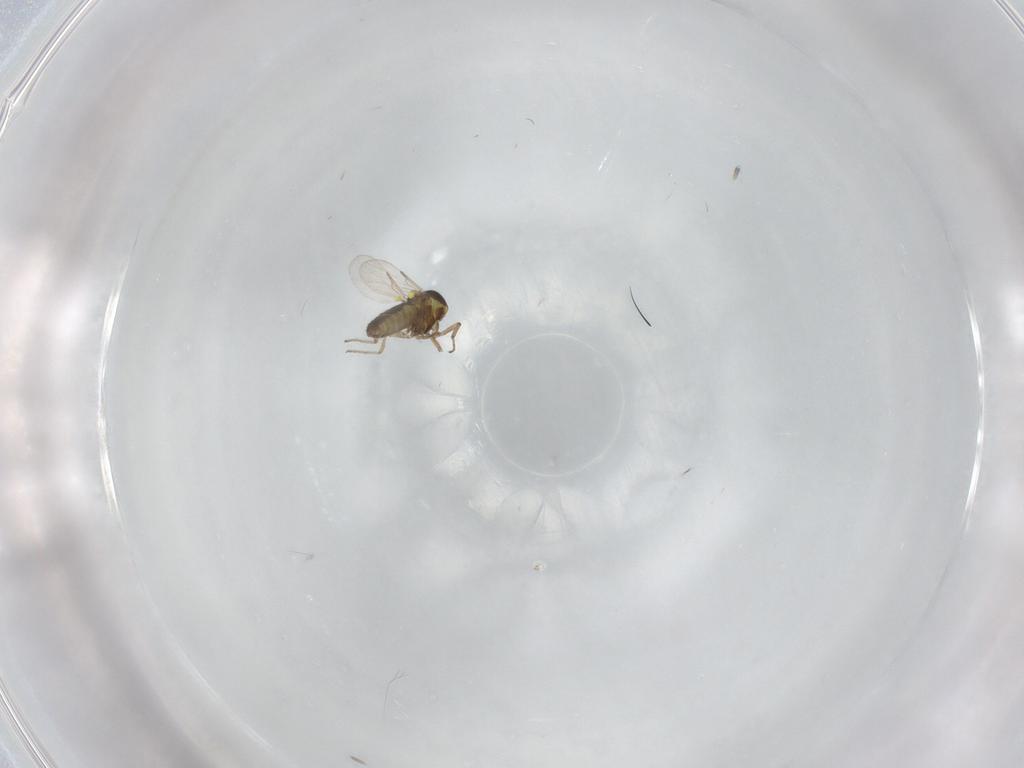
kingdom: Animalia
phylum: Arthropoda
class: Insecta
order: Diptera
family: Ceratopogonidae
